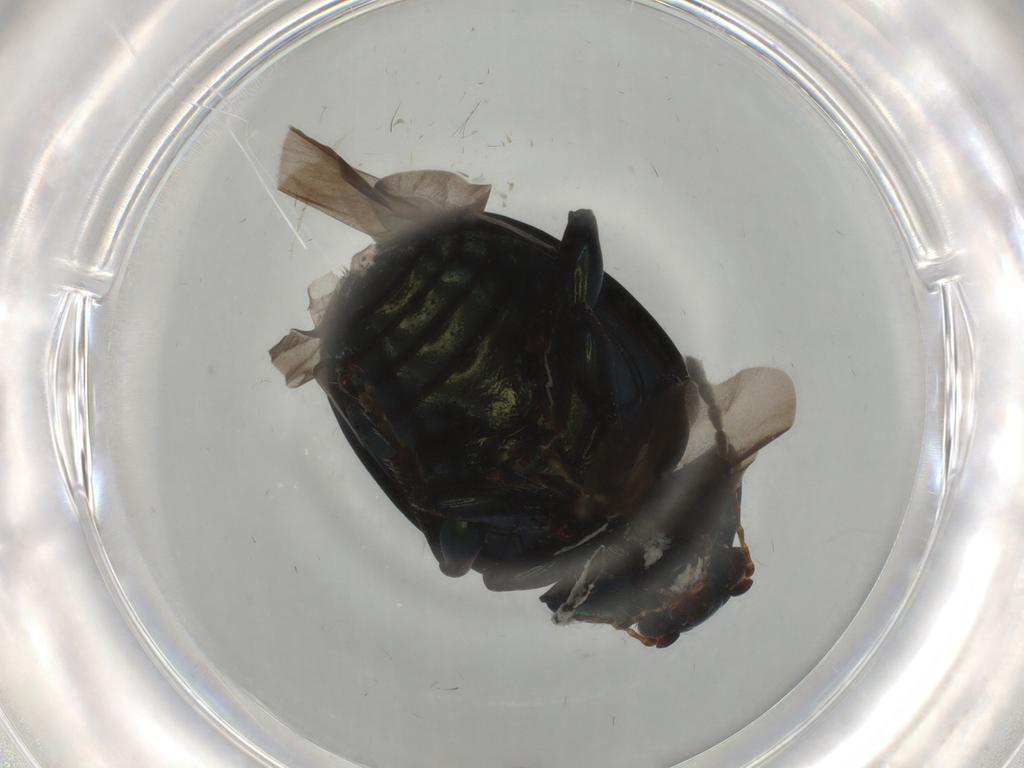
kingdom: Animalia
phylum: Arthropoda
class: Insecta
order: Coleoptera
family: Chrysomelidae
